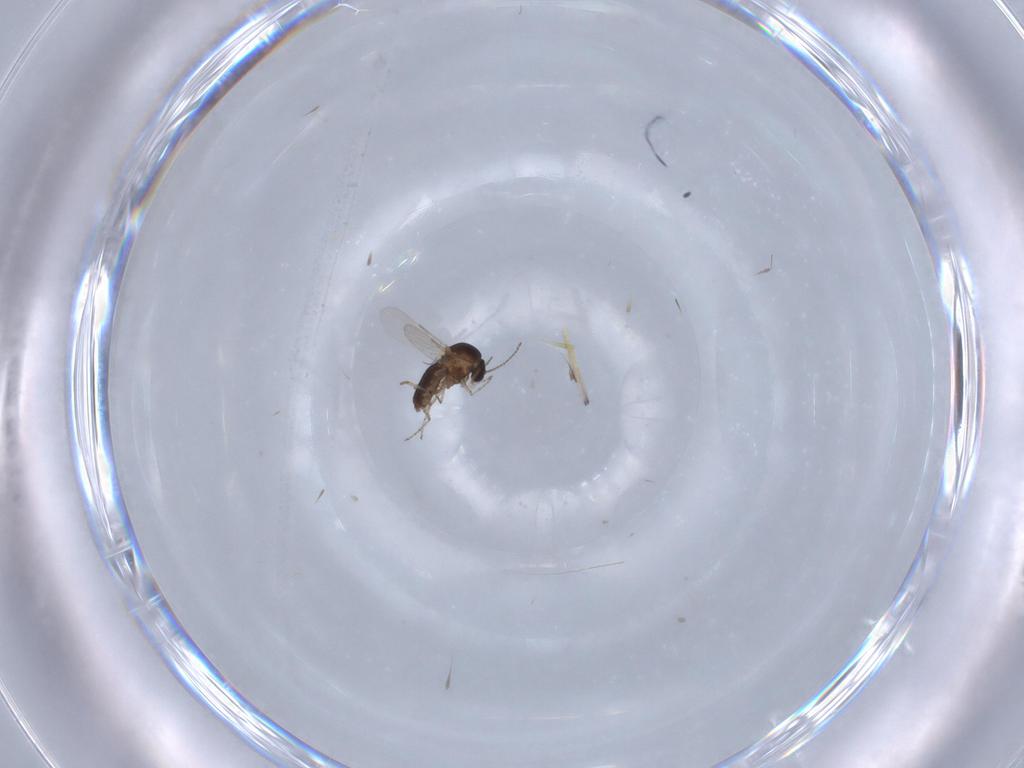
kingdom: Animalia
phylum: Arthropoda
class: Insecta
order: Diptera
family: Ceratopogonidae
